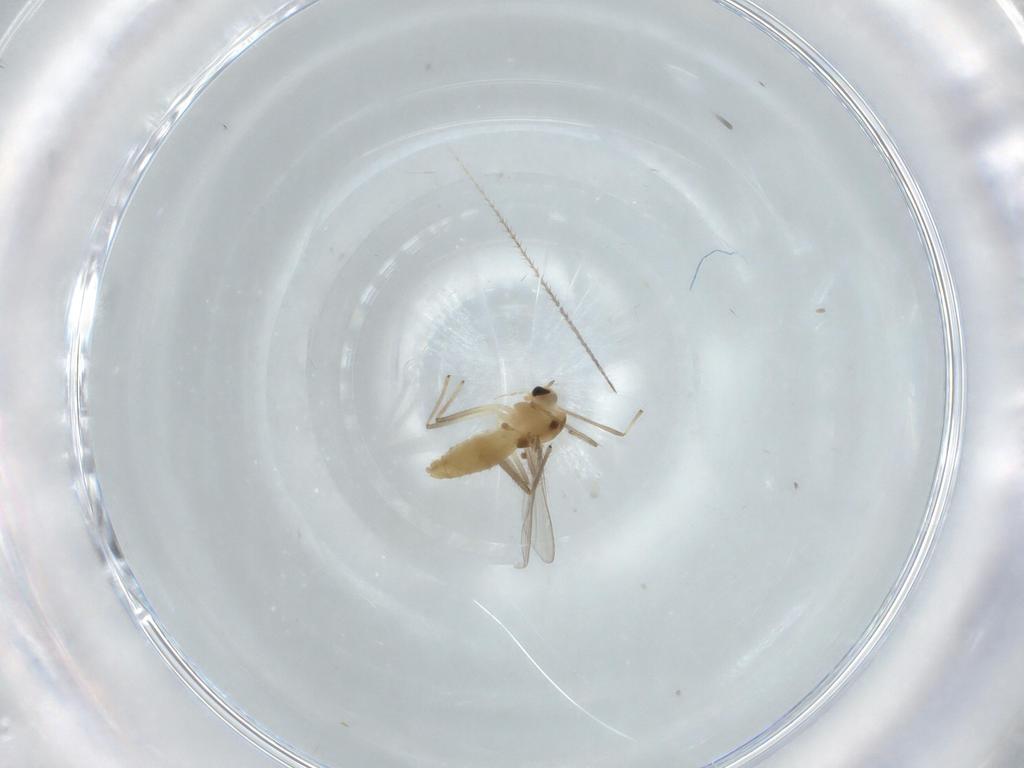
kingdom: Animalia
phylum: Arthropoda
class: Insecta
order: Diptera
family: Chironomidae
